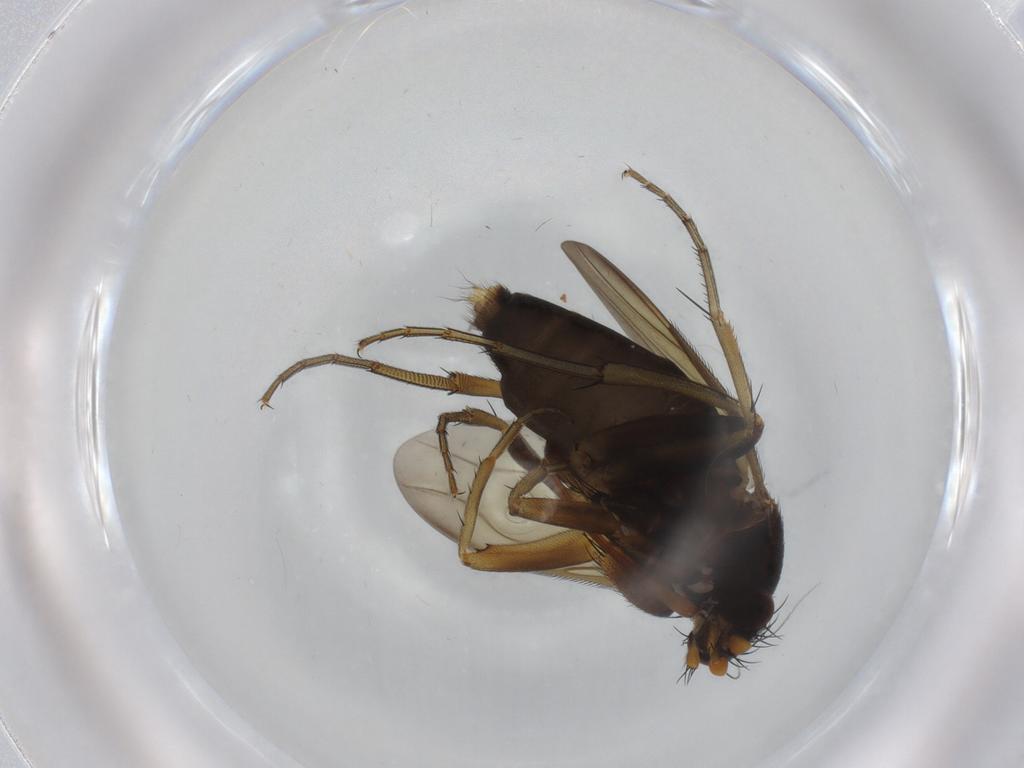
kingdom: Animalia
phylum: Arthropoda
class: Insecta
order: Diptera
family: Phoridae
